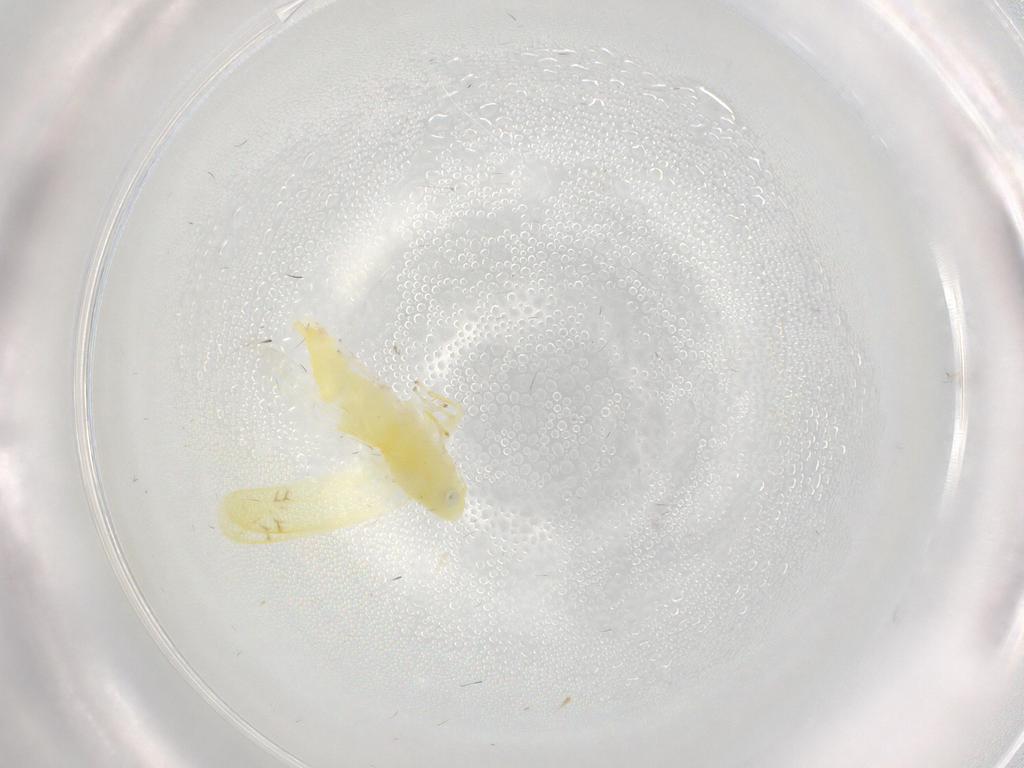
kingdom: Animalia
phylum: Arthropoda
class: Insecta
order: Hemiptera
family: Cicadellidae
